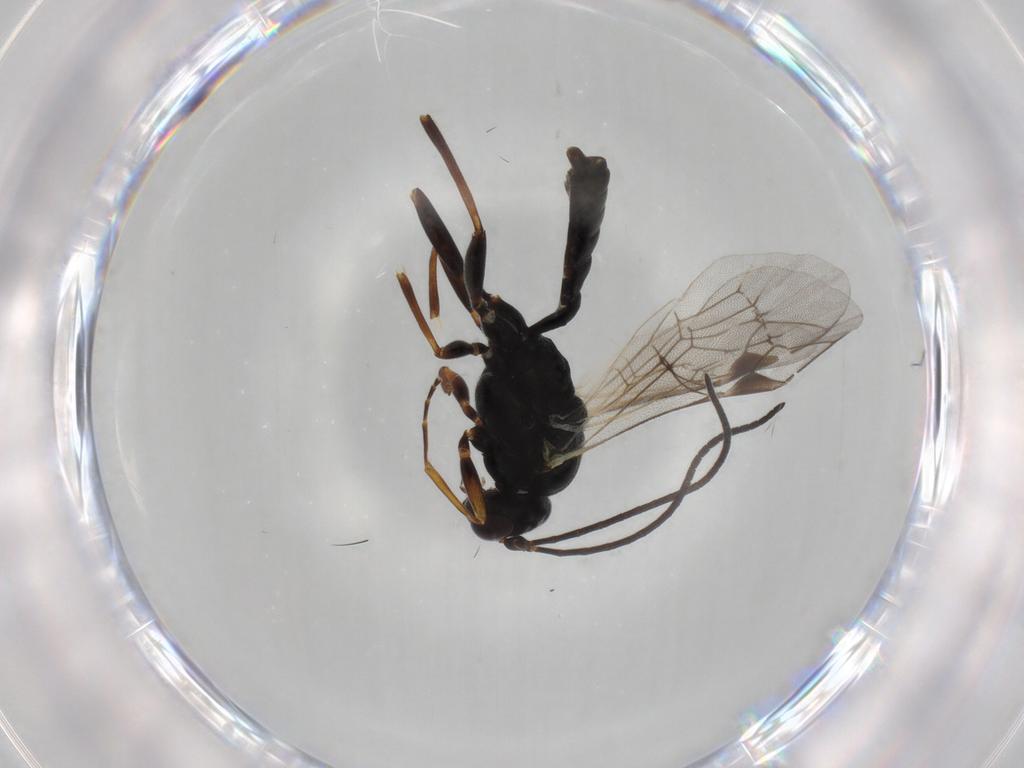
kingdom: Animalia
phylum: Arthropoda
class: Insecta
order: Hymenoptera
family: Ichneumonidae
